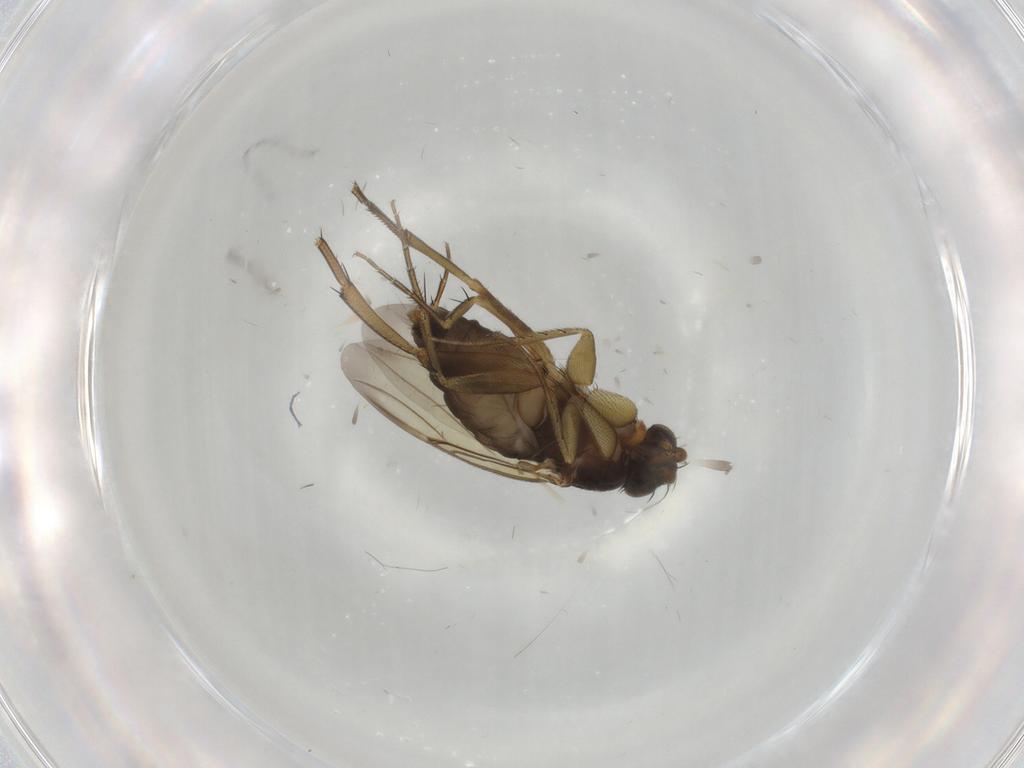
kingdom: Animalia
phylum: Arthropoda
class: Insecta
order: Diptera
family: Phoridae
